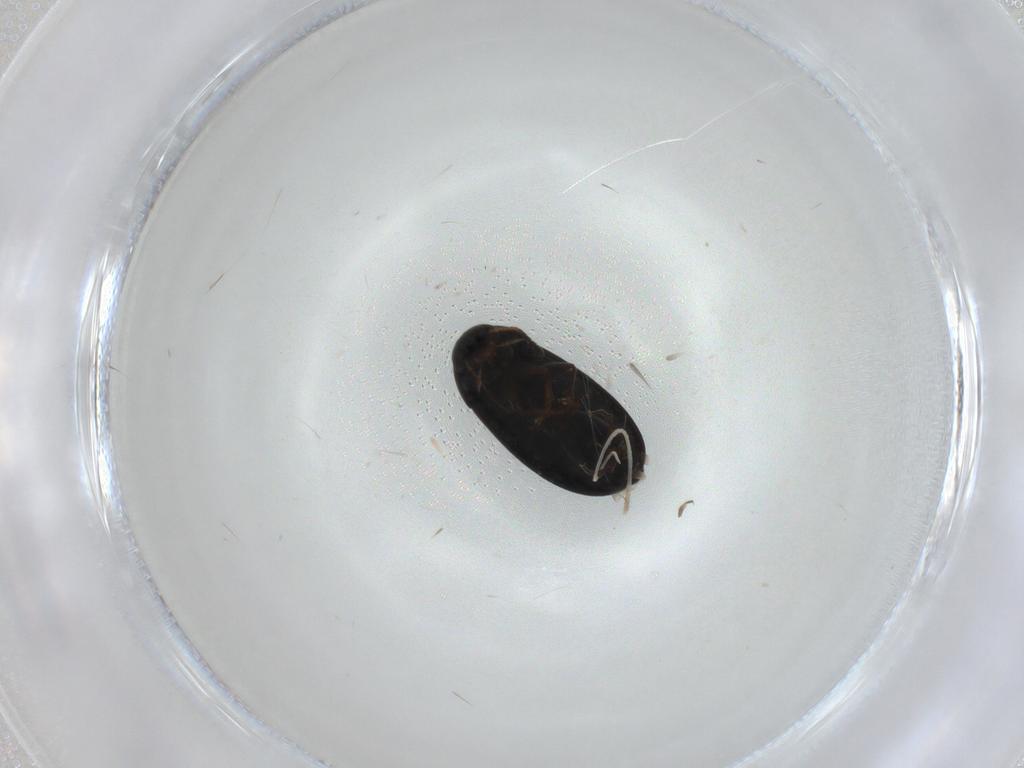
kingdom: Animalia
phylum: Arthropoda
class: Insecta
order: Coleoptera
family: Scraptiidae
